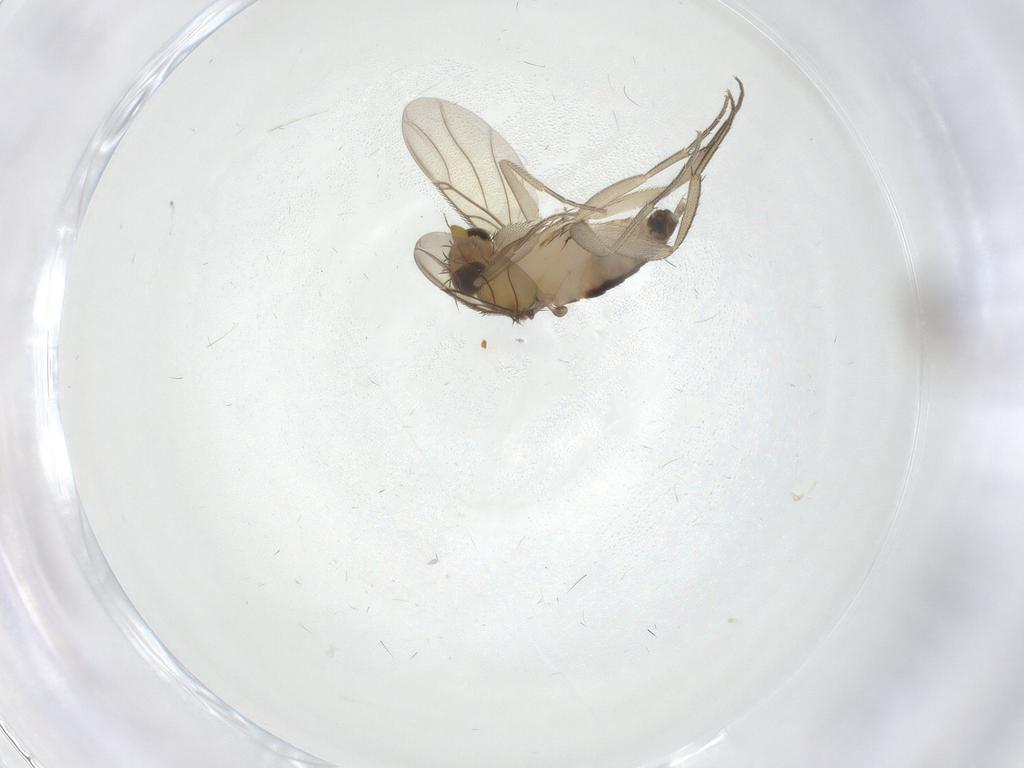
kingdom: Animalia
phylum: Arthropoda
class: Insecta
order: Diptera
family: Phoridae
